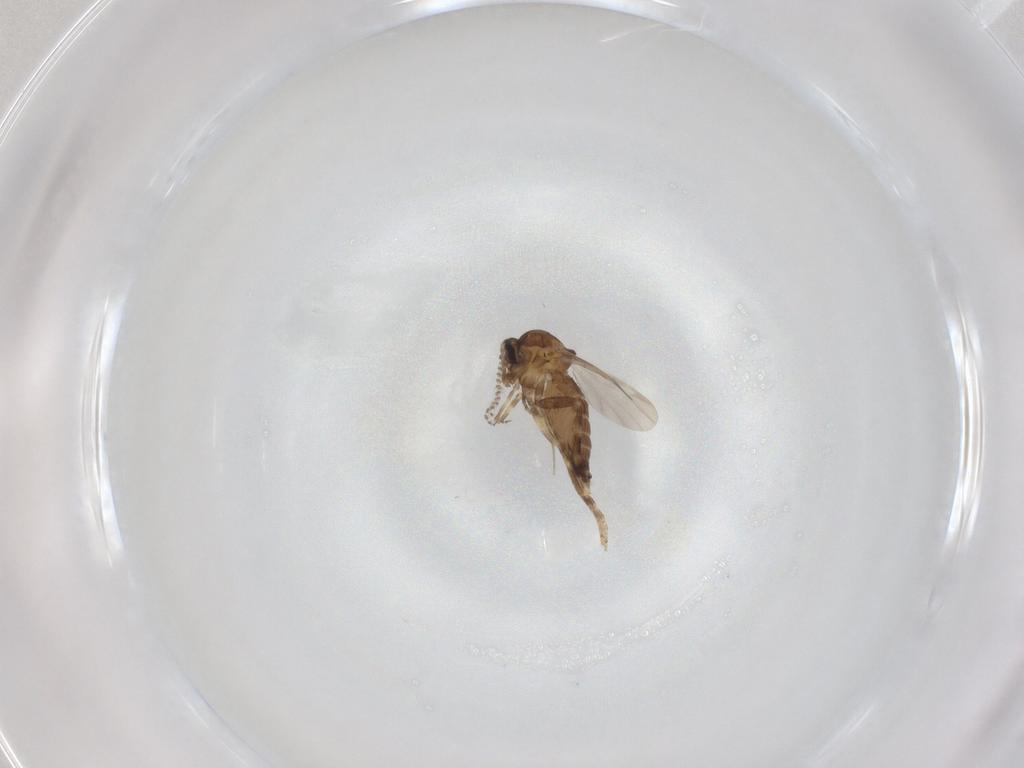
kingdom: Animalia
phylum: Arthropoda
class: Insecta
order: Diptera
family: Ceratopogonidae
